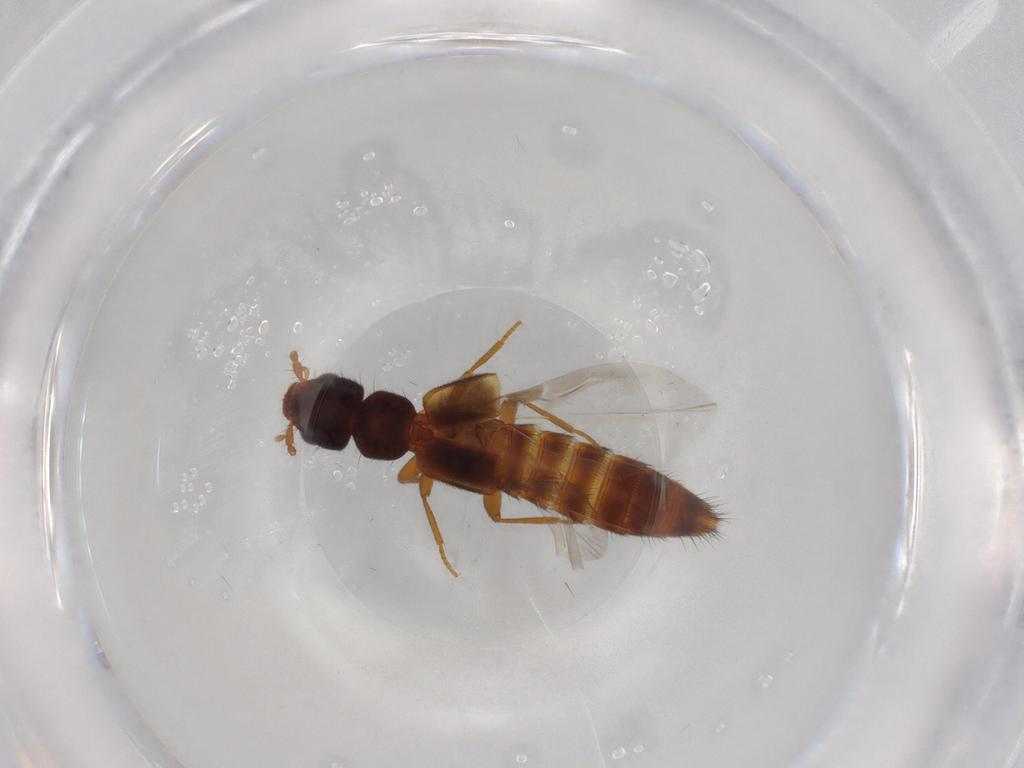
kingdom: Animalia
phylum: Arthropoda
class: Insecta
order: Coleoptera
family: Staphylinidae
